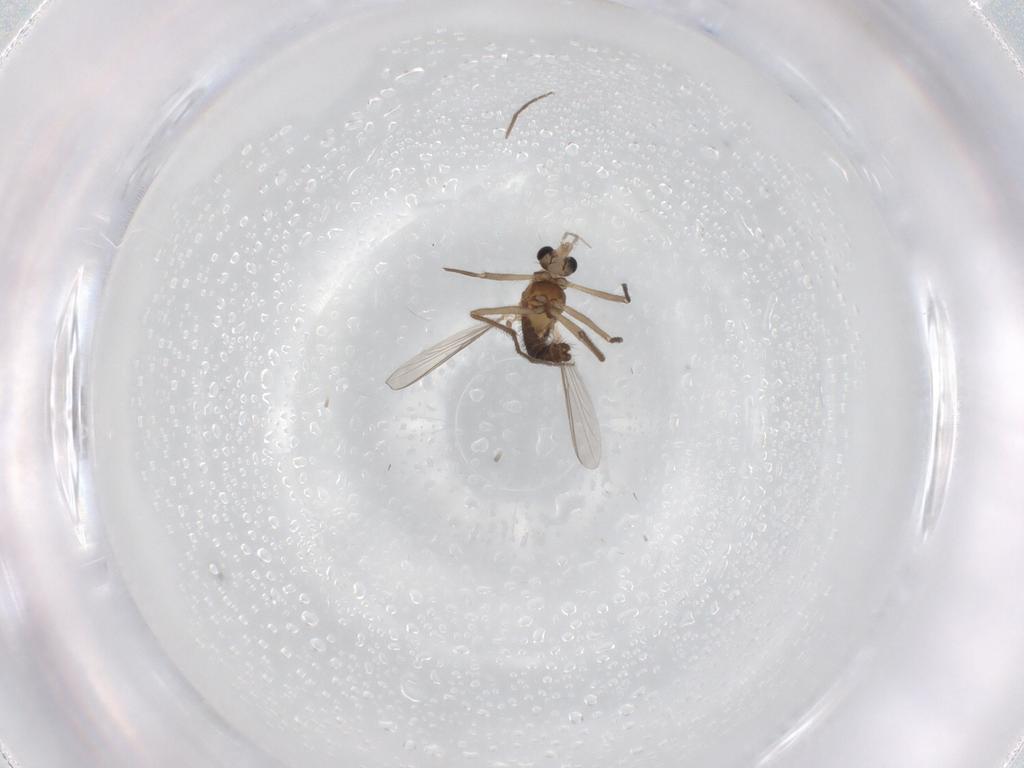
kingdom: Animalia
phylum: Arthropoda
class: Insecta
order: Diptera
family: Chironomidae
